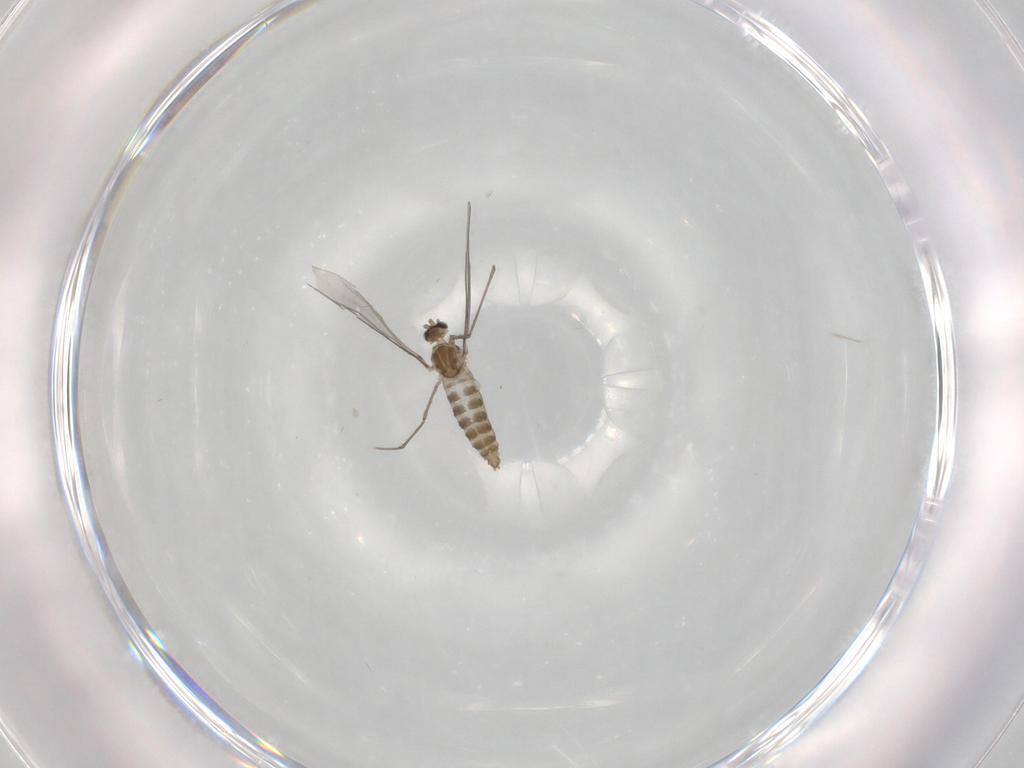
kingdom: Animalia
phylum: Arthropoda
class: Insecta
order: Diptera
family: Cecidomyiidae
